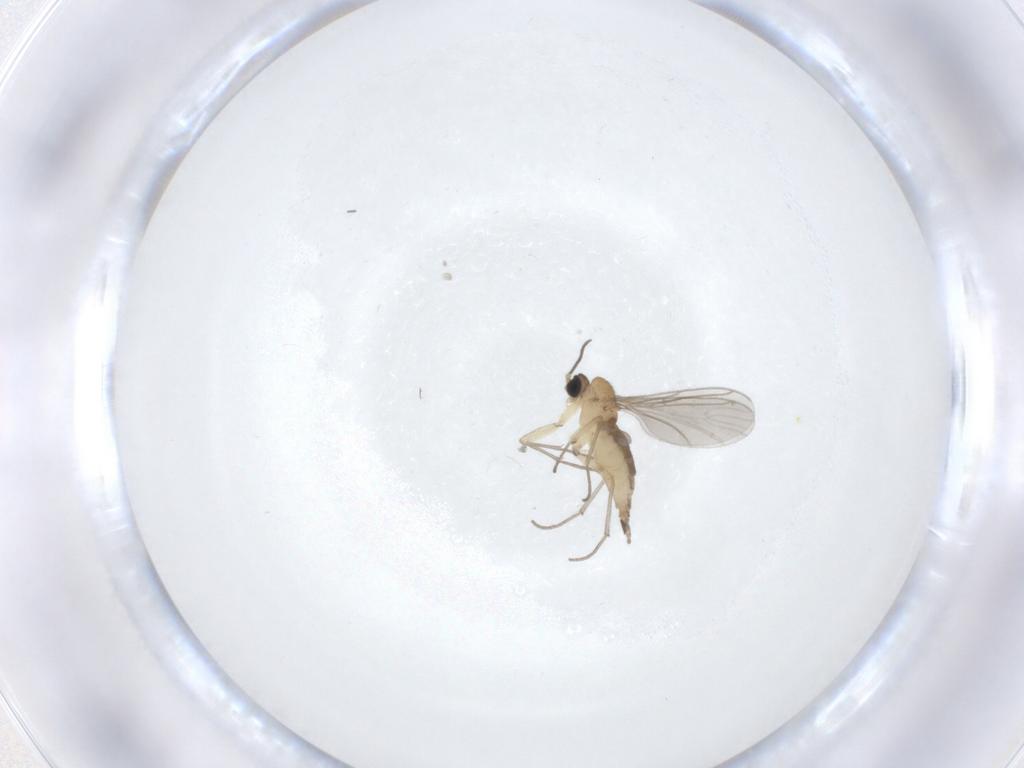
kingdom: Animalia
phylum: Arthropoda
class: Insecta
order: Diptera
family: Sciaridae
